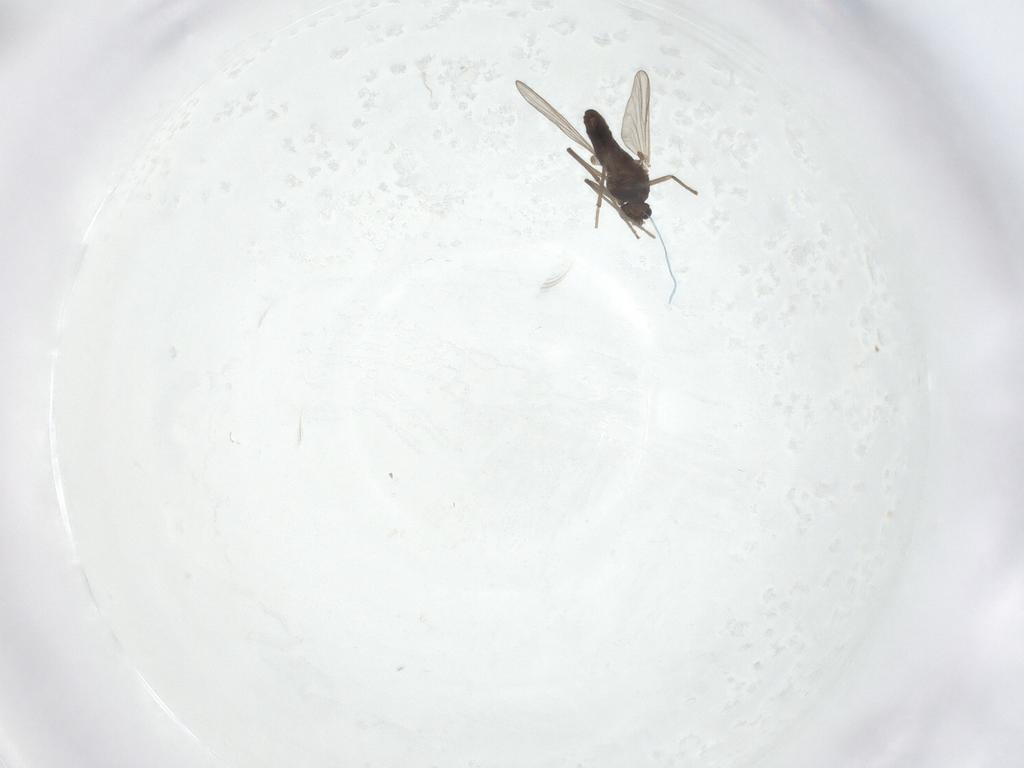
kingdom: Animalia
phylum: Arthropoda
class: Insecta
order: Diptera
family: Chironomidae
